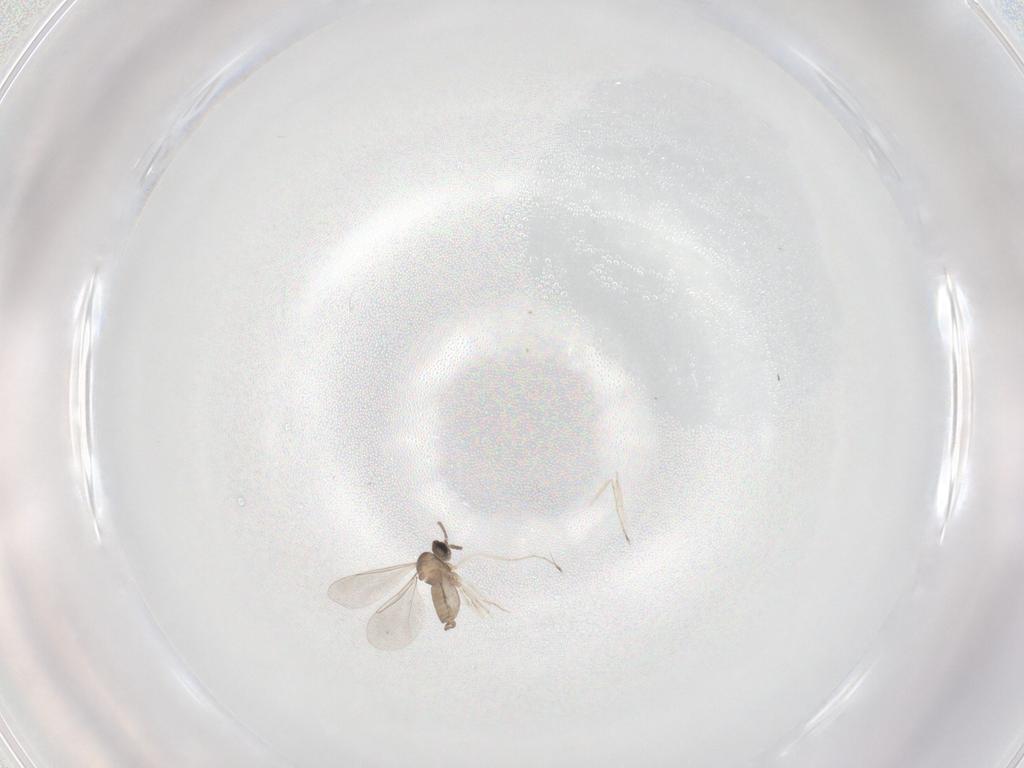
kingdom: Animalia
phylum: Arthropoda
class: Insecta
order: Diptera
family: Cecidomyiidae
